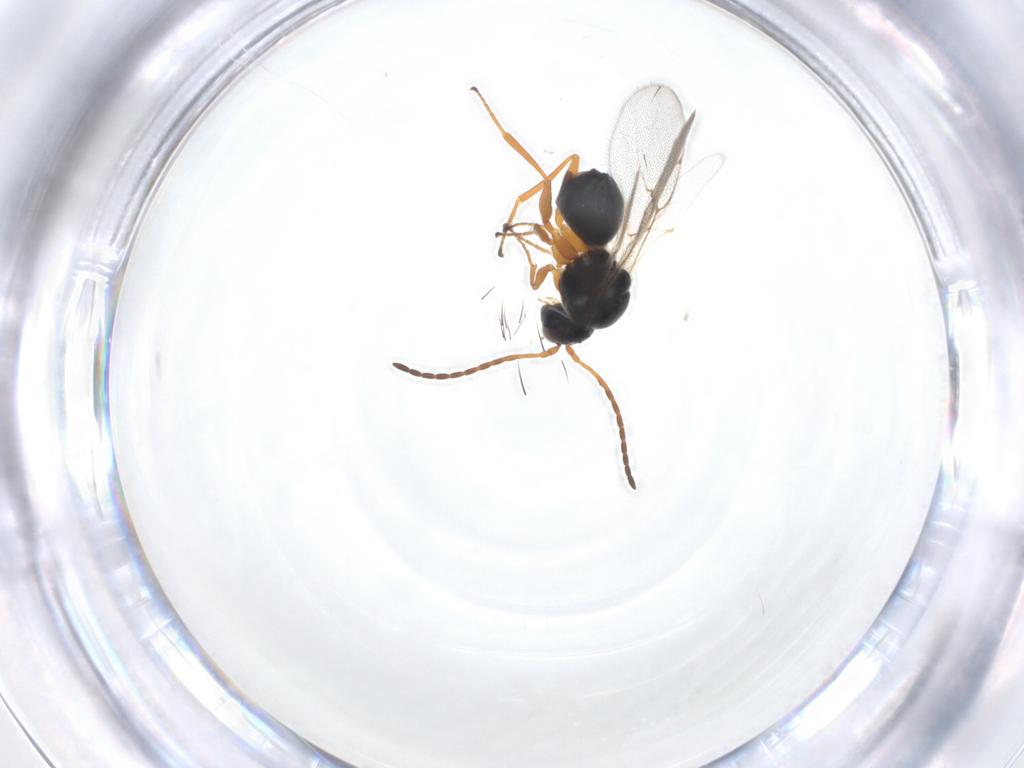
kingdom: Animalia
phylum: Arthropoda
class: Insecta
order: Hymenoptera
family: Figitidae
